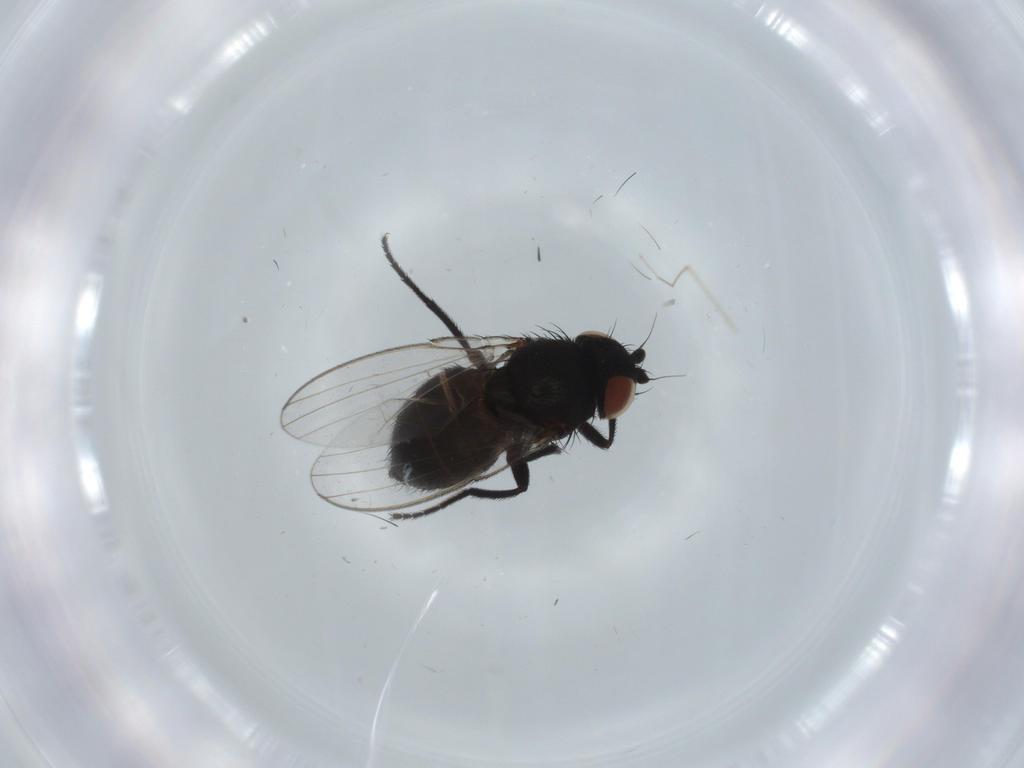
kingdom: Animalia
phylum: Arthropoda
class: Insecta
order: Diptera
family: Milichiidae
